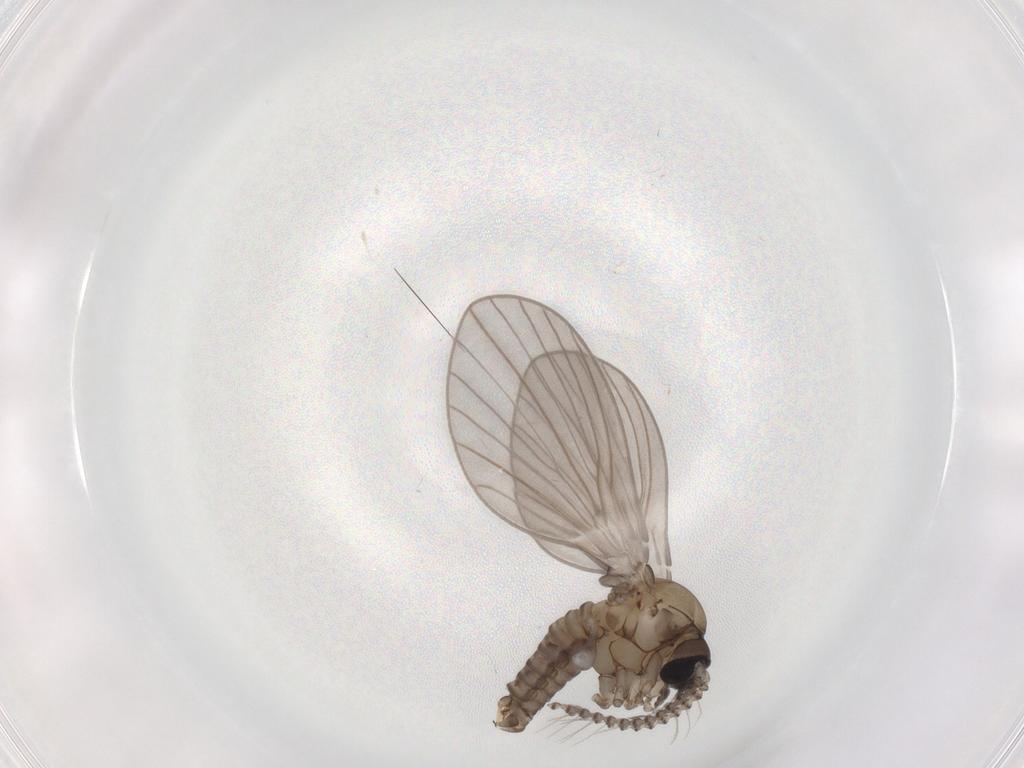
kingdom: Animalia
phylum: Arthropoda
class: Insecta
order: Diptera
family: Psychodidae
